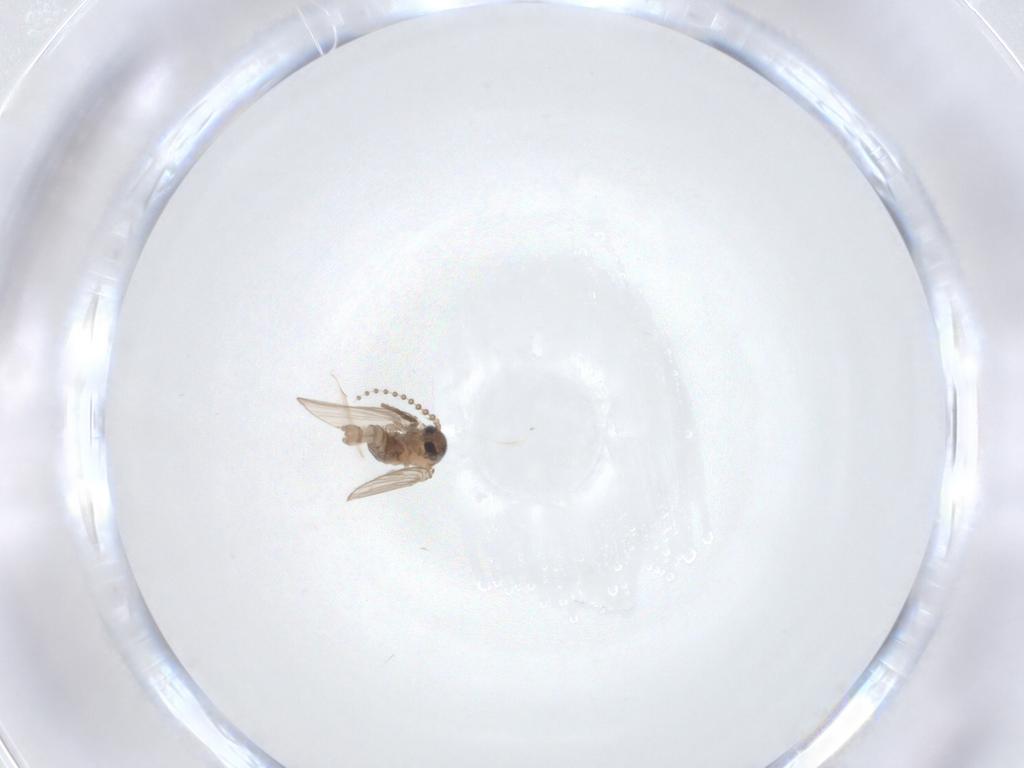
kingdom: Animalia
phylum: Arthropoda
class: Insecta
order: Diptera
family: Psychodidae
